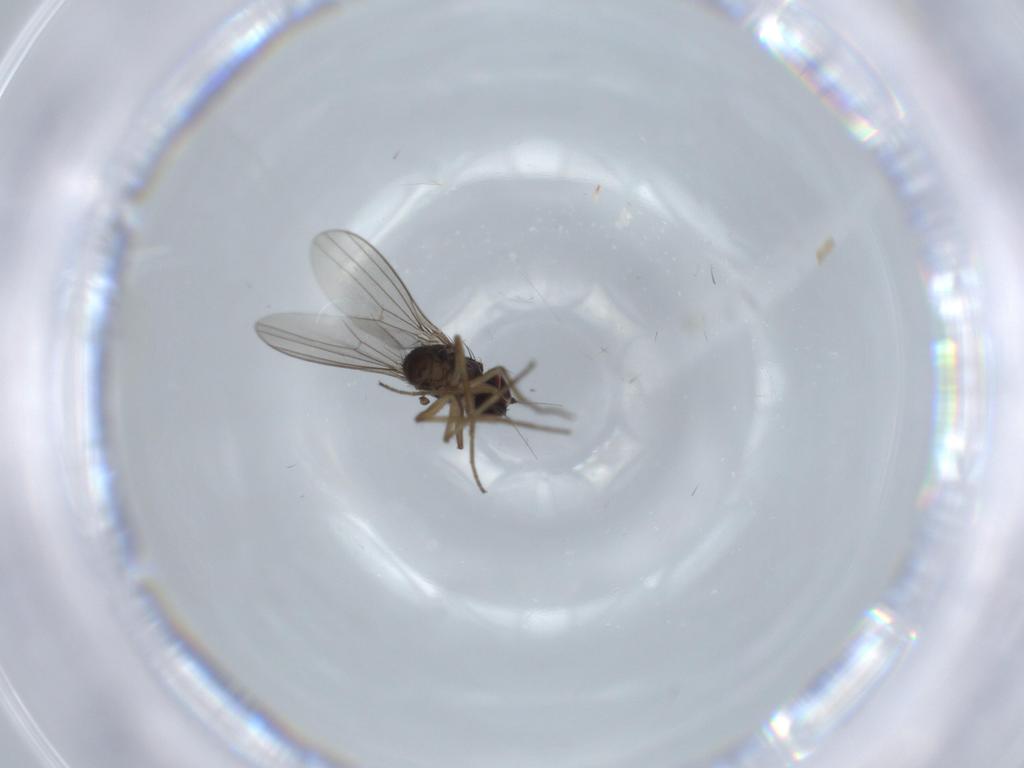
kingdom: Animalia
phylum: Arthropoda
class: Insecta
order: Diptera
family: Dolichopodidae
